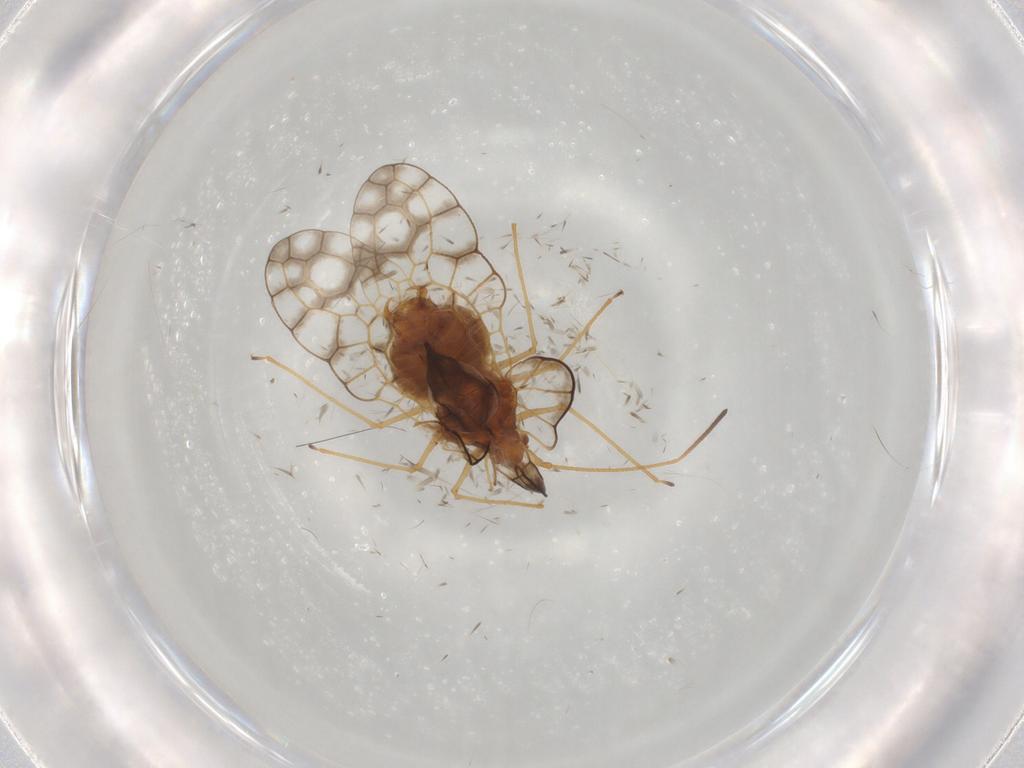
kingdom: Animalia
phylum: Arthropoda
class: Insecta
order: Hemiptera
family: Tingidae
